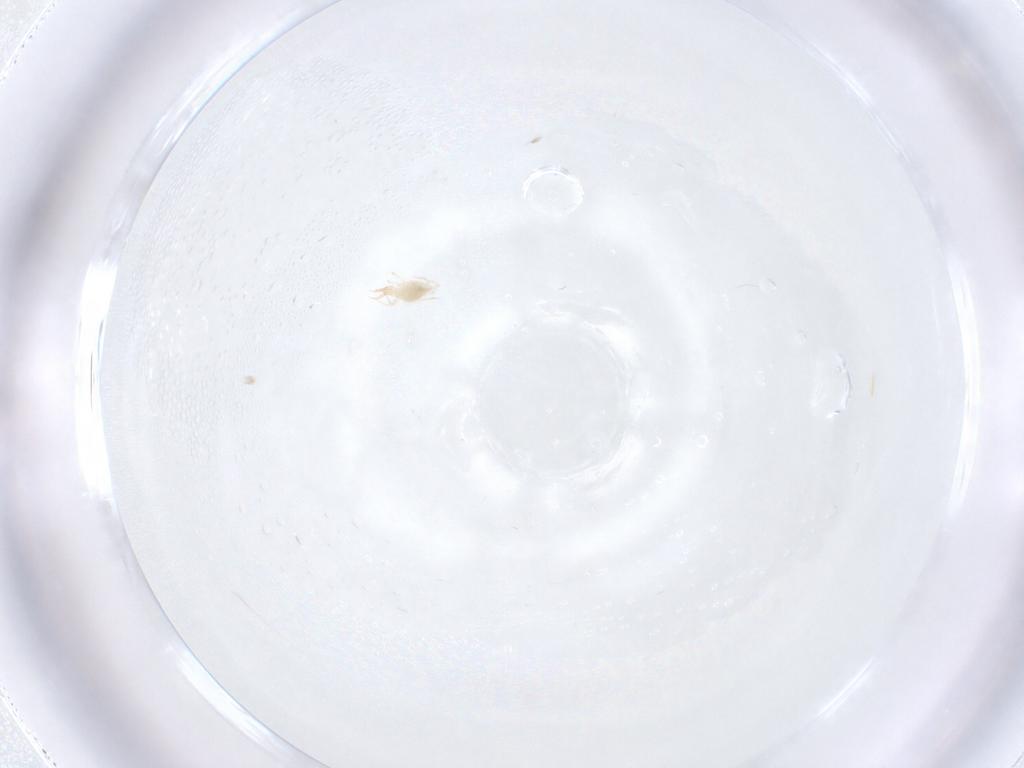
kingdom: Animalia
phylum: Arthropoda
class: Arachnida
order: Trombidiformes
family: Cunaxidae
